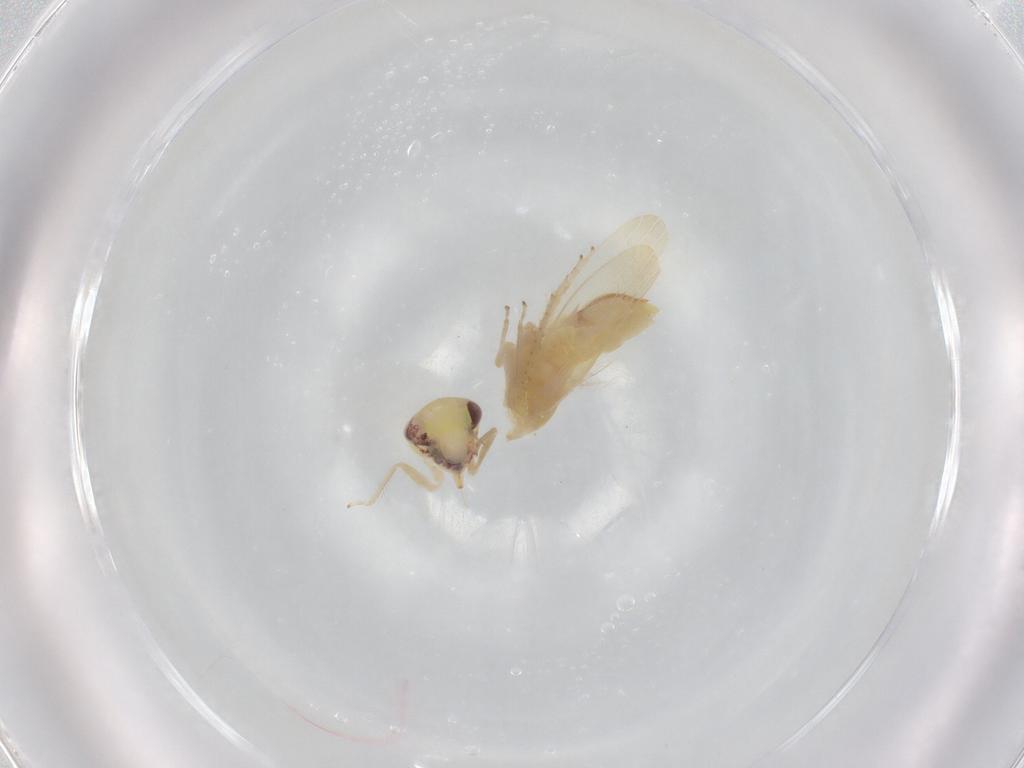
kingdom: Animalia
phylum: Arthropoda
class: Insecta
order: Hemiptera
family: Cicadellidae
